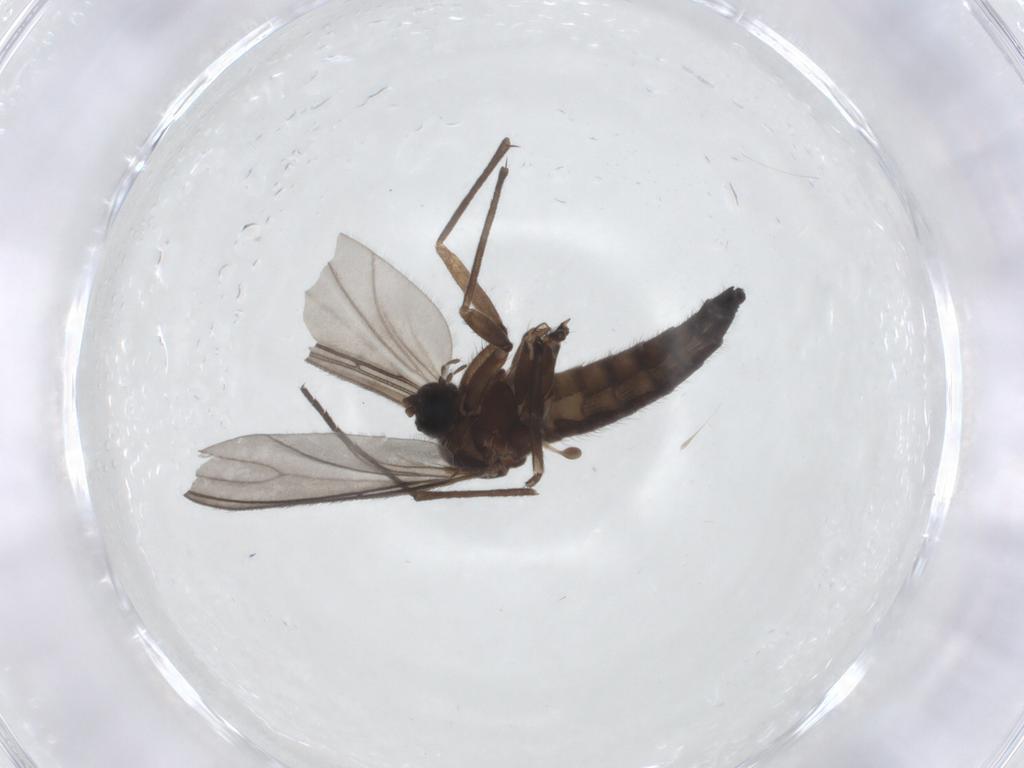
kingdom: Animalia
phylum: Arthropoda
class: Insecta
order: Diptera
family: Sciaridae
